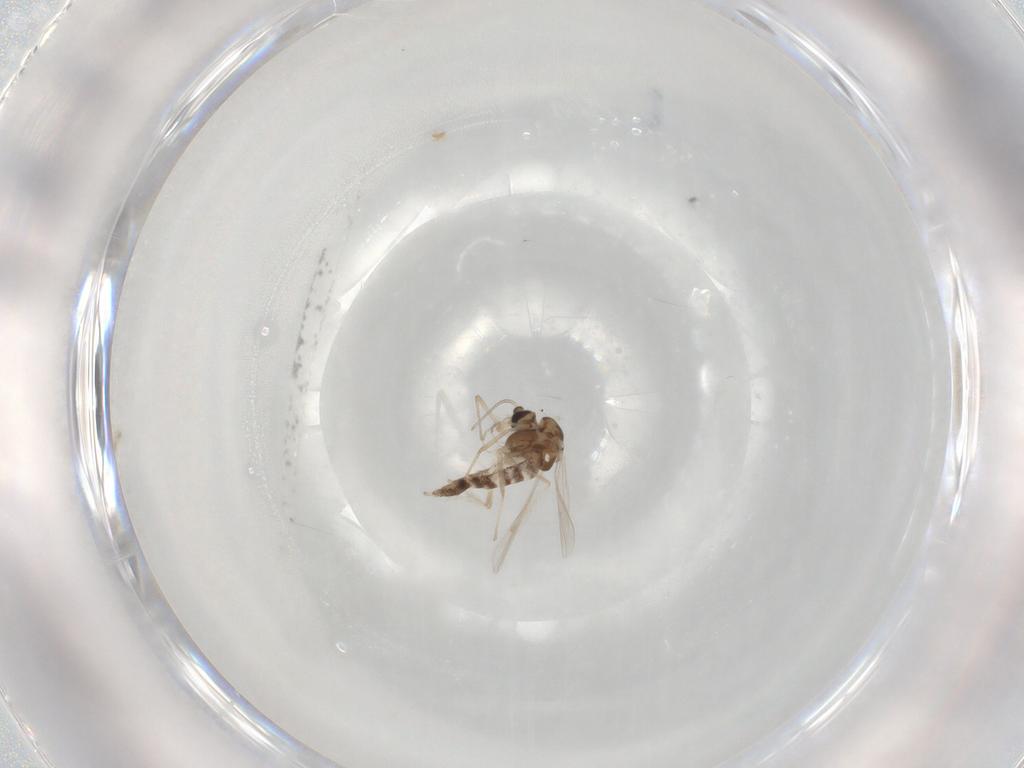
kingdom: Animalia
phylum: Arthropoda
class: Insecta
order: Diptera
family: Chironomidae
